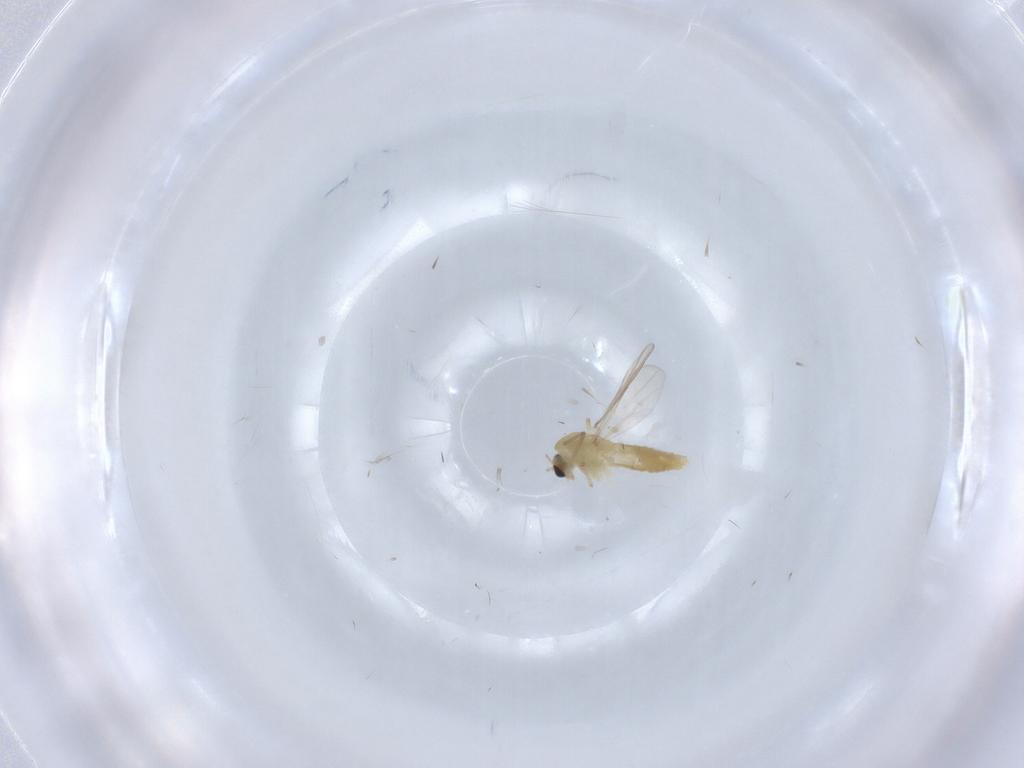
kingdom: Animalia
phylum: Arthropoda
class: Insecta
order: Diptera
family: Chironomidae
